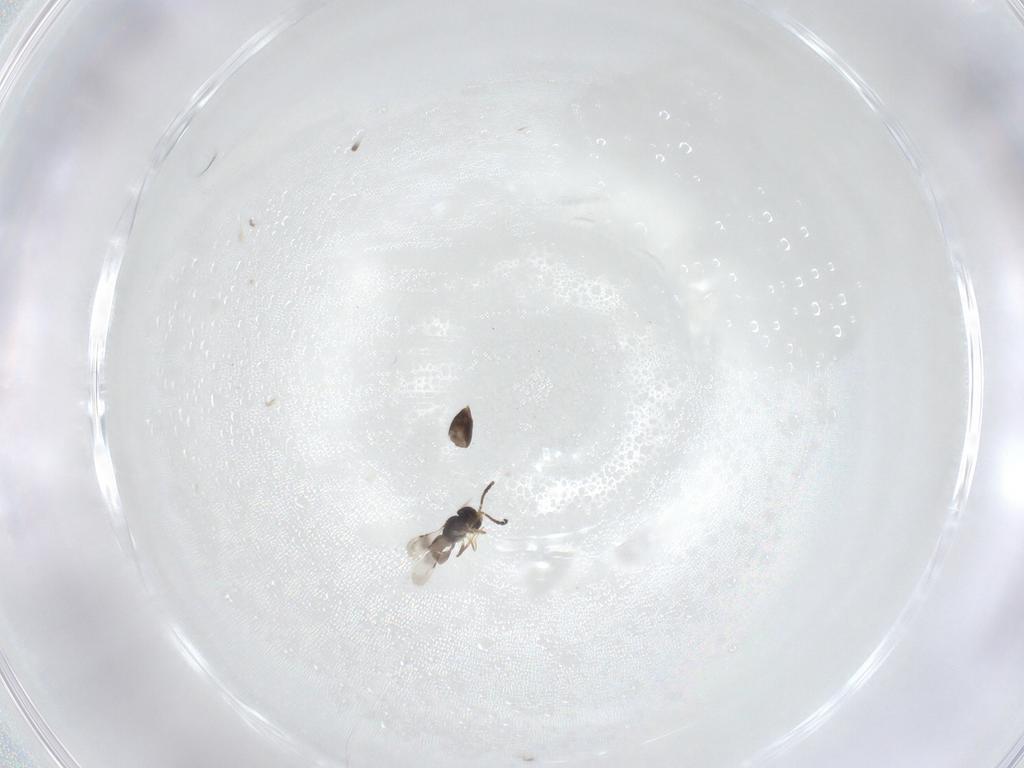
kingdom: Animalia
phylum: Arthropoda
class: Insecta
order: Hymenoptera
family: Ceraphronidae
